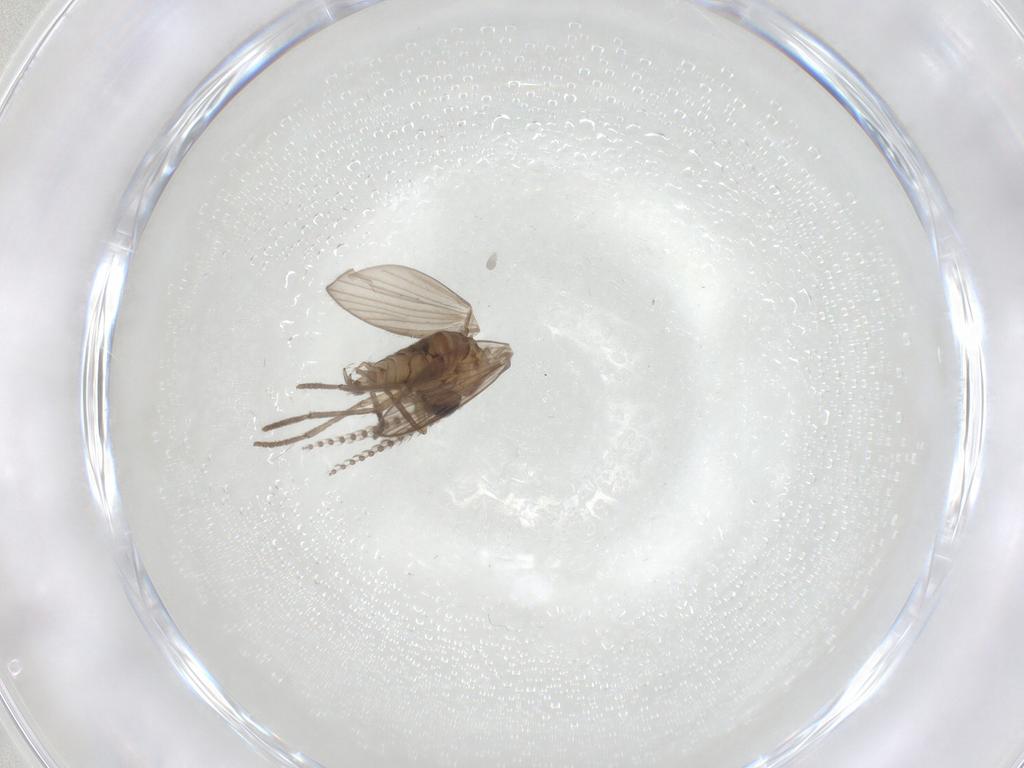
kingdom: Animalia
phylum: Arthropoda
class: Insecta
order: Diptera
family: Psychodidae
